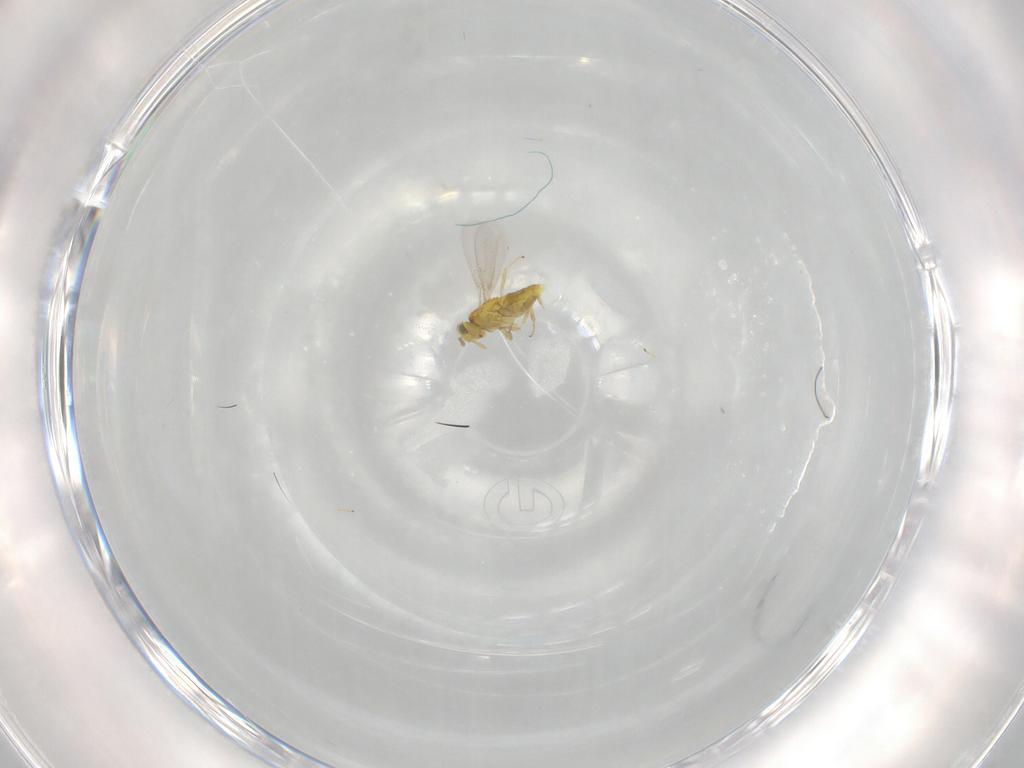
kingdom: Animalia
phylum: Arthropoda
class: Insecta
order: Hymenoptera
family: Aphelinidae
